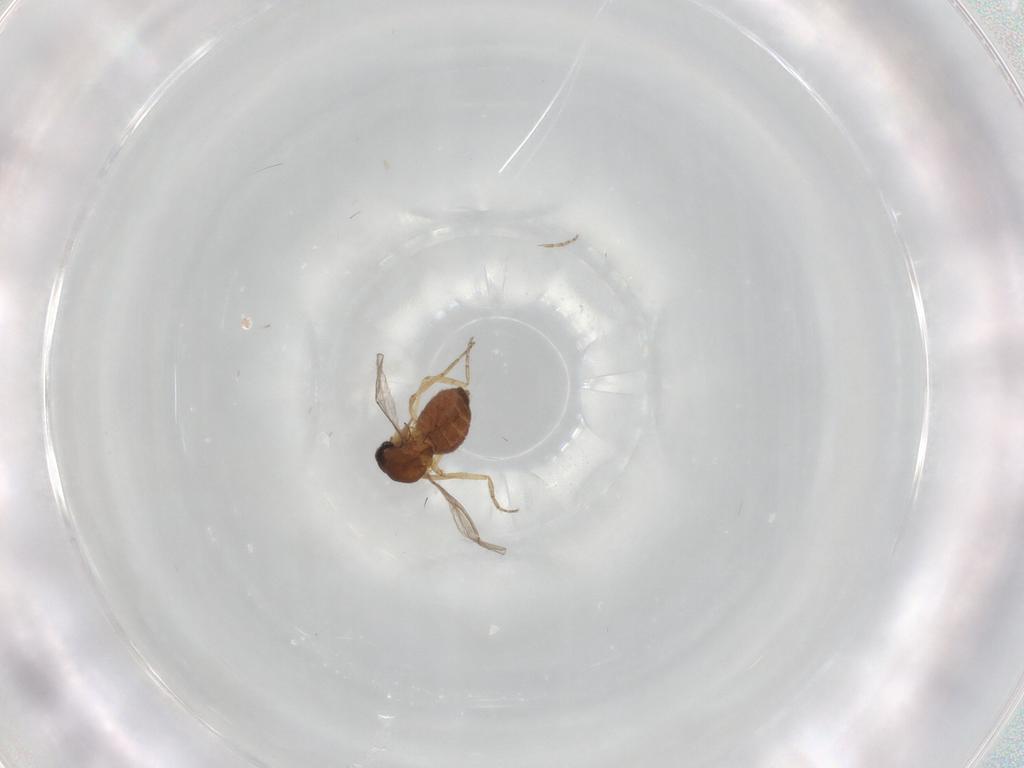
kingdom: Animalia
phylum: Arthropoda
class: Insecta
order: Diptera
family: Ceratopogonidae
